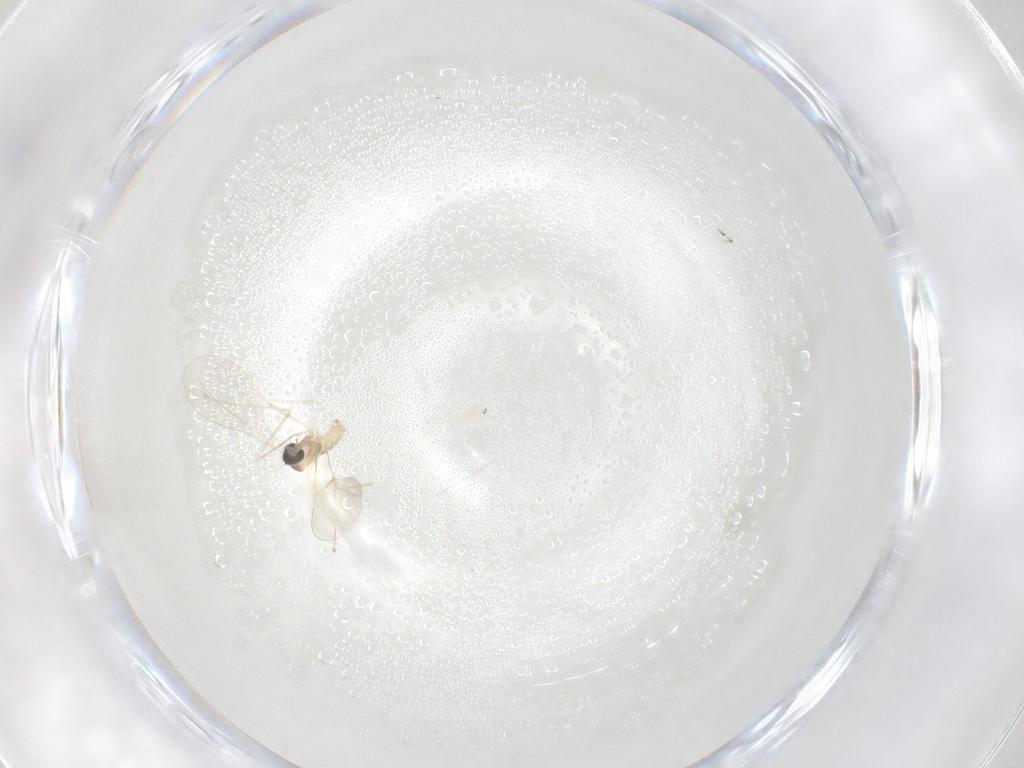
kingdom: Animalia
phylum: Arthropoda
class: Insecta
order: Diptera
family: Cecidomyiidae
